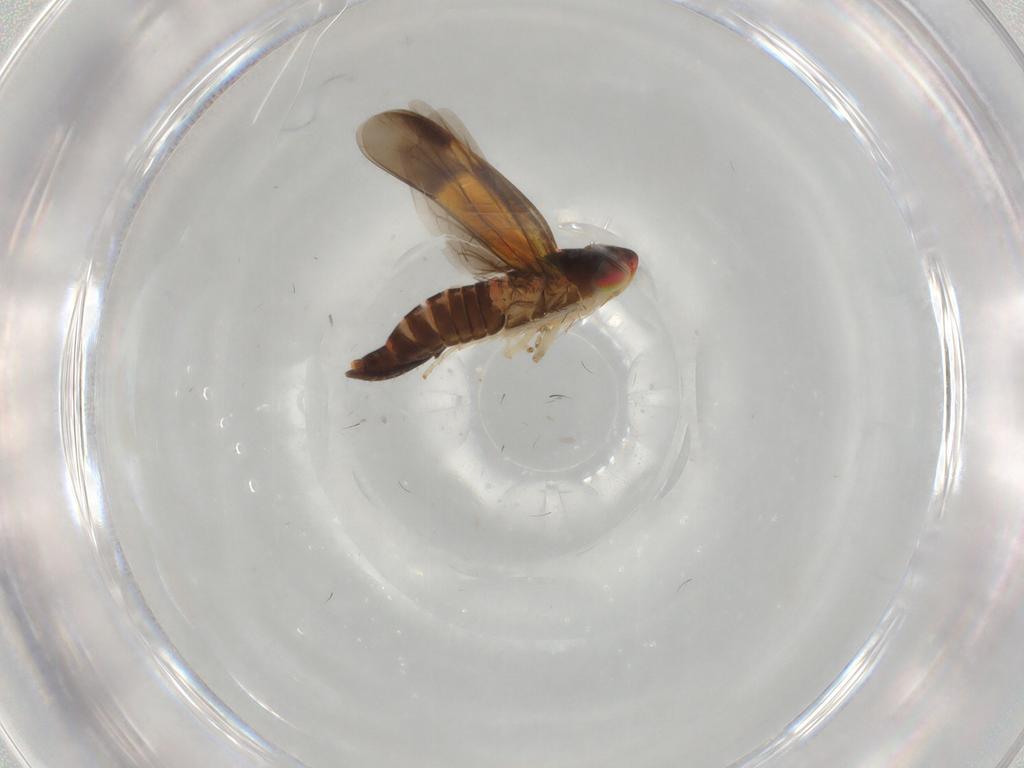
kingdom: Animalia
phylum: Arthropoda
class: Insecta
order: Hemiptera
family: Cicadellidae
